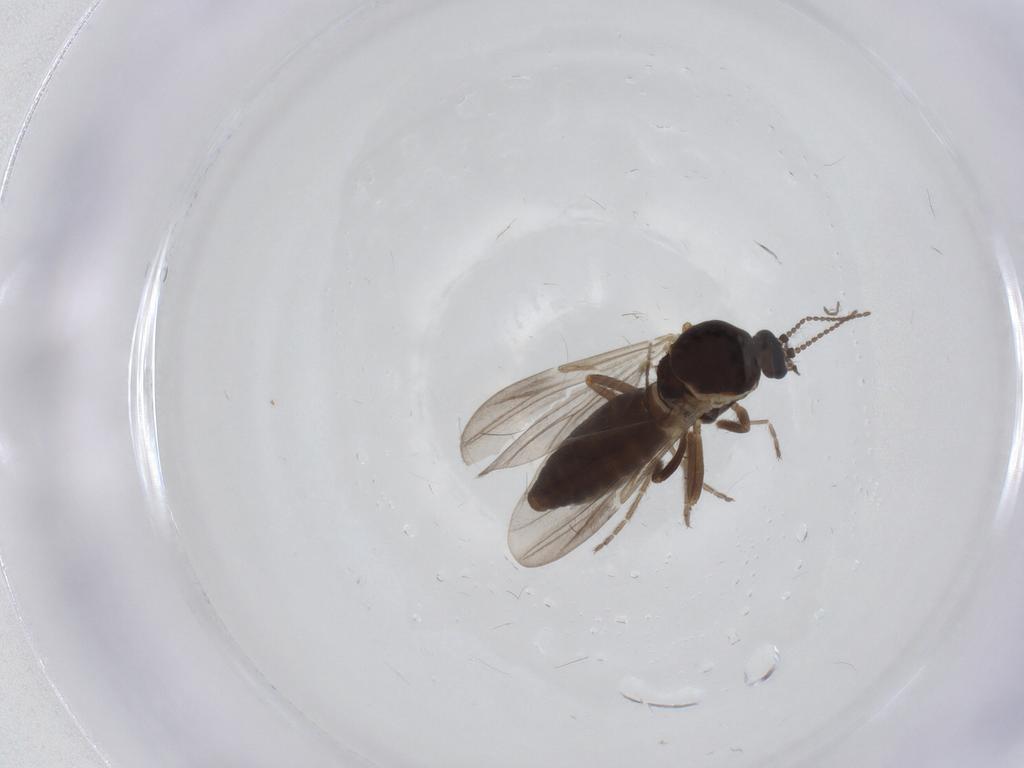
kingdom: Animalia
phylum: Arthropoda
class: Insecta
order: Diptera
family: Ceratopogonidae
